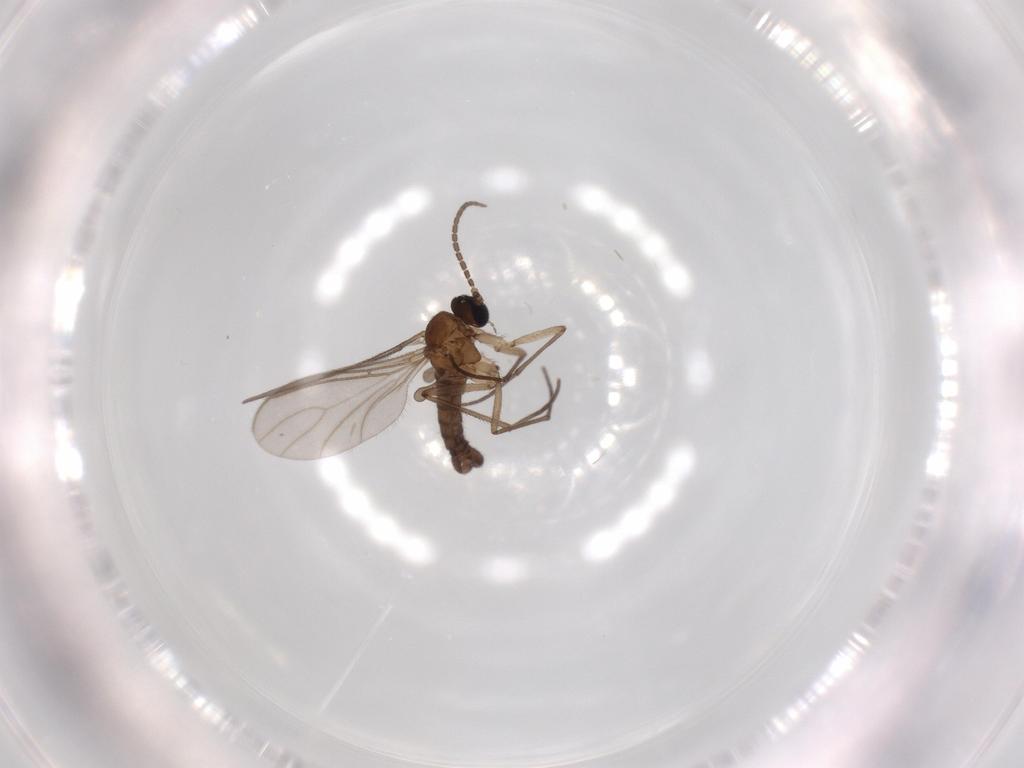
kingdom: Animalia
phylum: Arthropoda
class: Insecta
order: Diptera
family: Sciaridae
